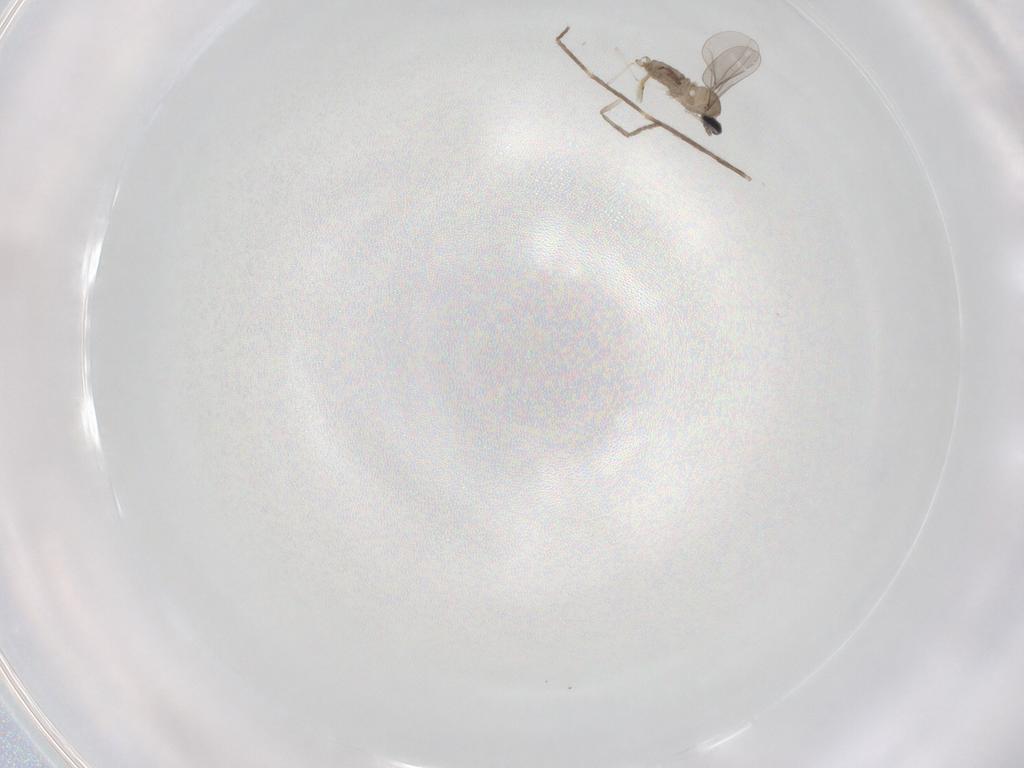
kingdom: Animalia
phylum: Arthropoda
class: Insecta
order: Diptera
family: Cecidomyiidae
